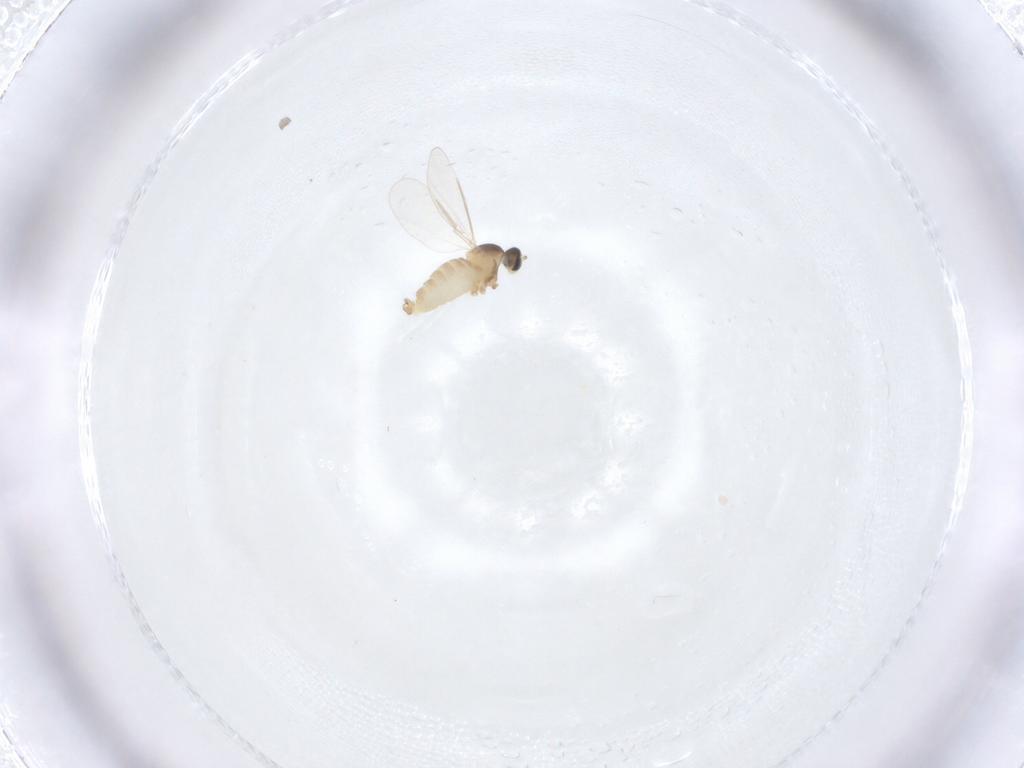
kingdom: Animalia
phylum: Arthropoda
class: Insecta
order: Diptera
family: Cecidomyiidae
